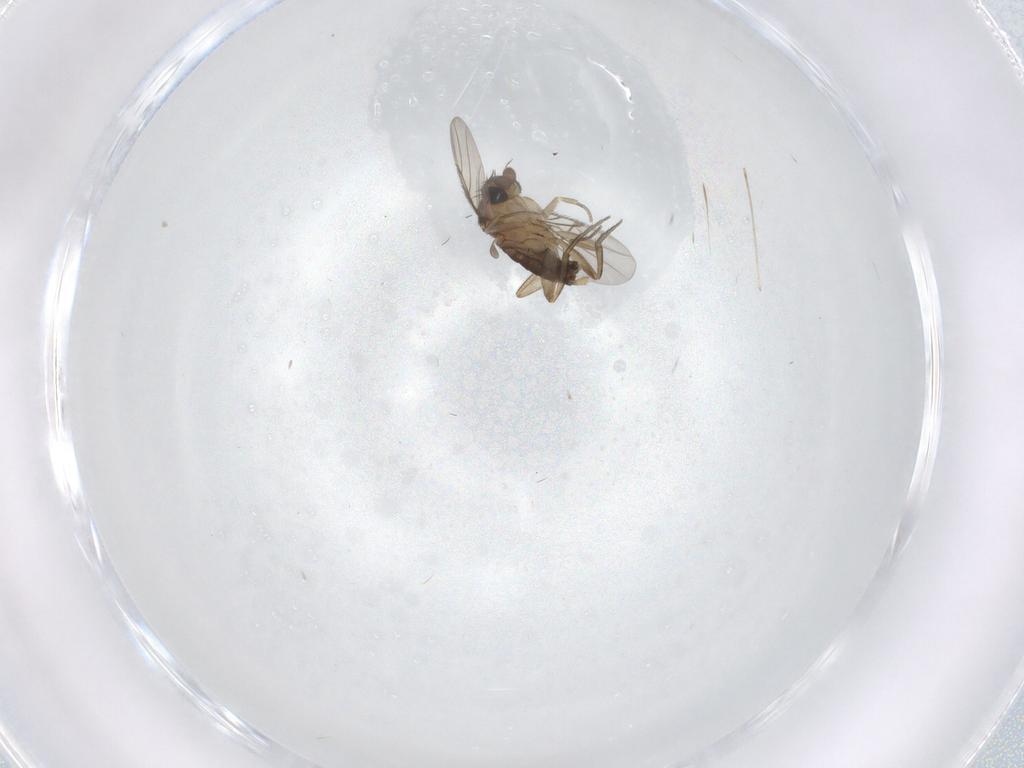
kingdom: Animalia
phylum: Arthropoda
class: Insecta
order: Diptera
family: Phoridae
